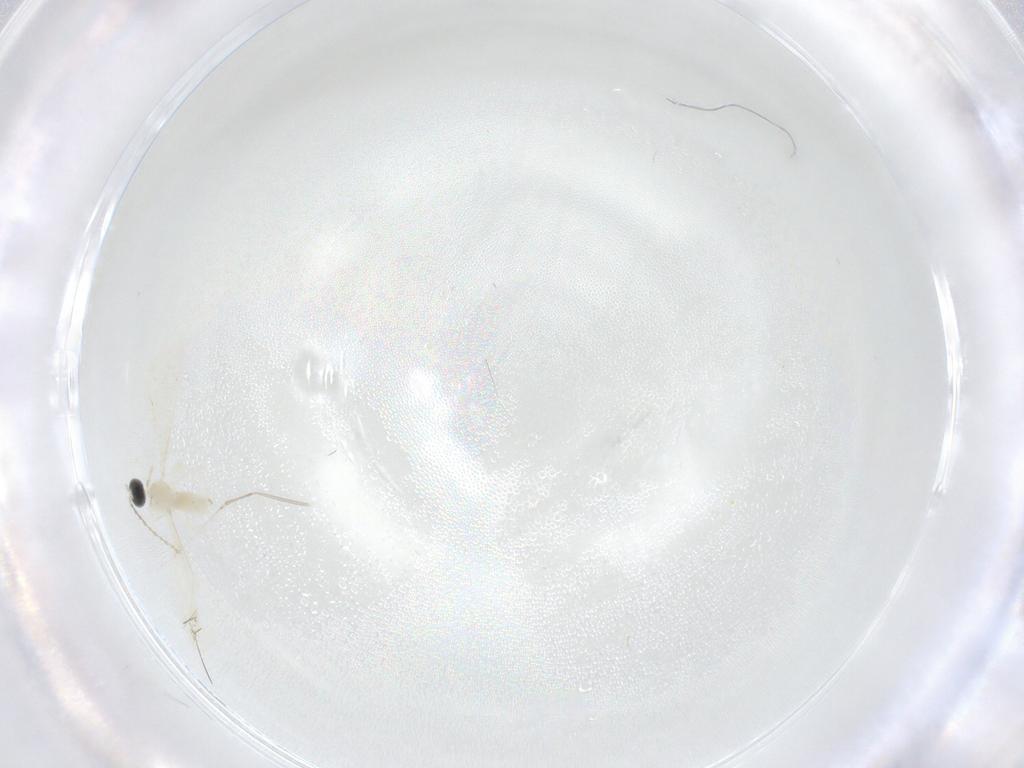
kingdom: Animalia
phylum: Arthropoda
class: Insecta
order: Diptera
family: Cecidomyiidae
